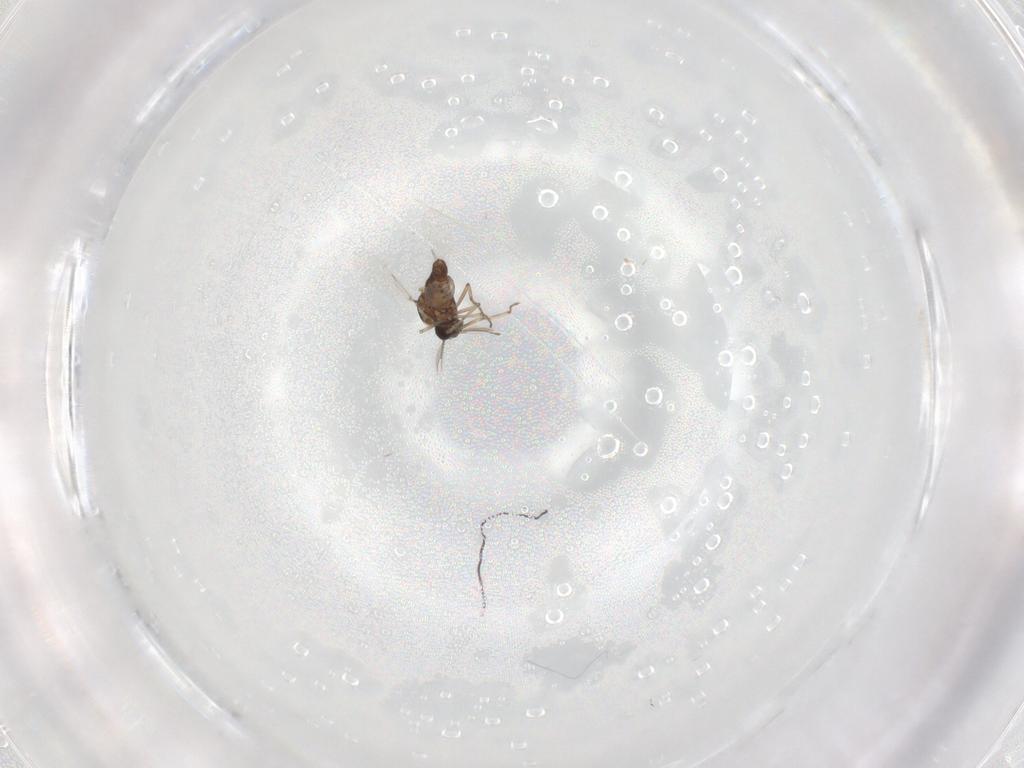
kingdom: Animalia
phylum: Arthropoda
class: Insecta
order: Diptera
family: Ceratopogonidae
